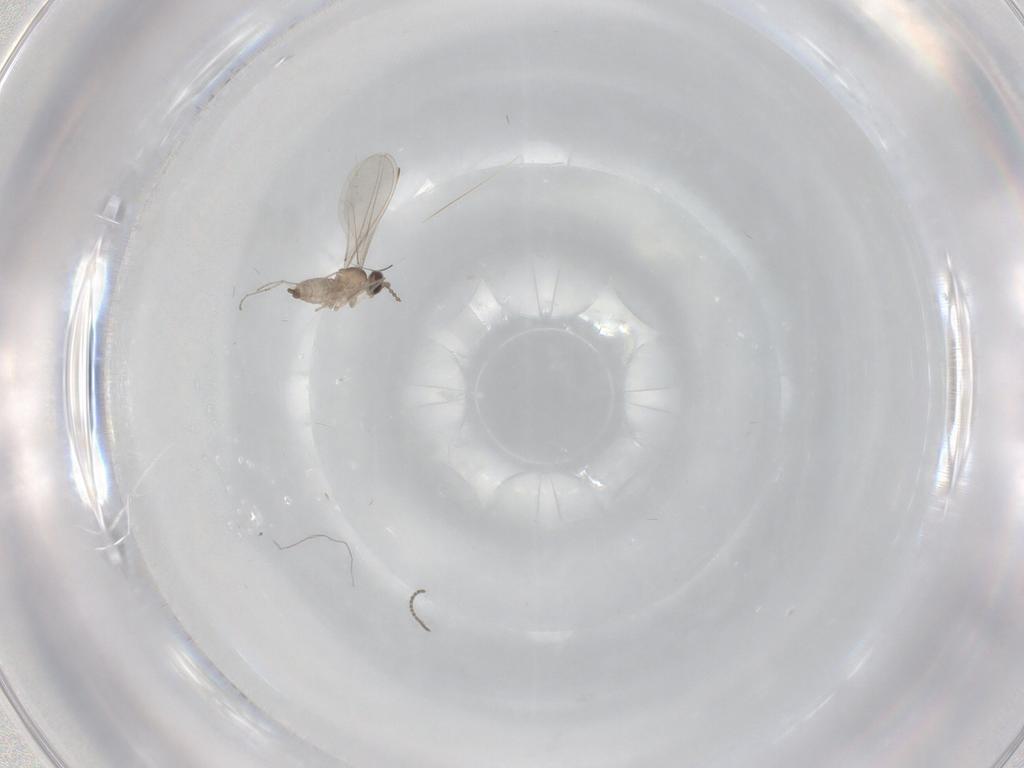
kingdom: Animalia
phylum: Arthropoda
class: Insecta
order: Diptera
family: Cecidomyiidae
